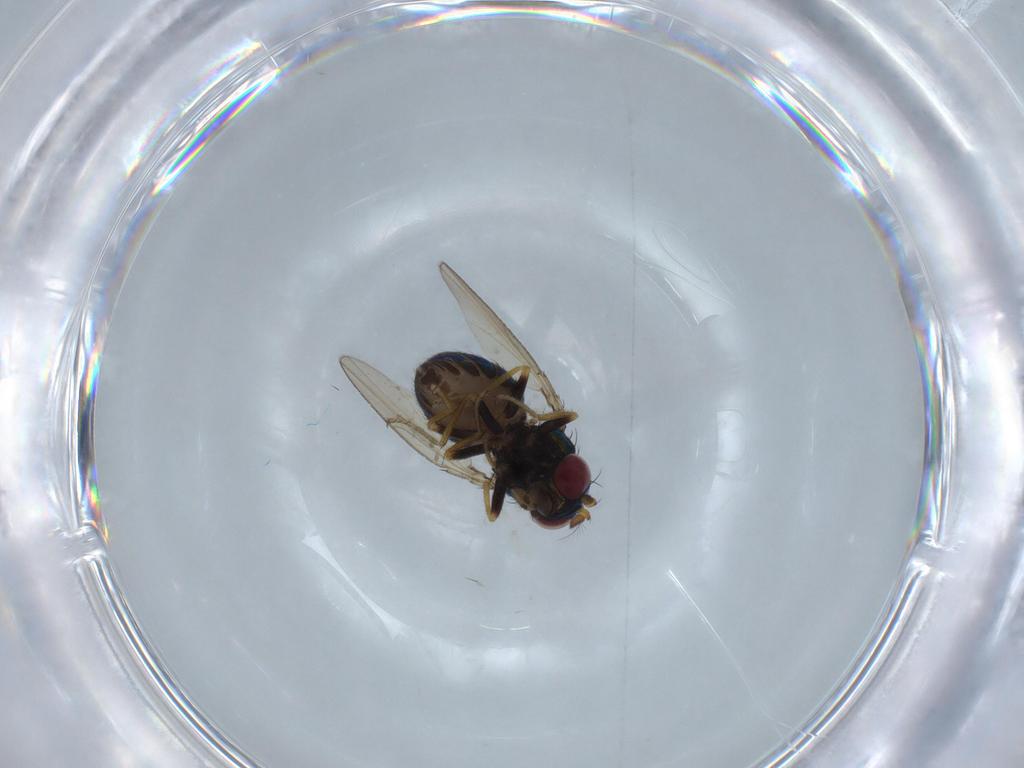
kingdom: Animalia
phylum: Arthropoda
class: Insecta
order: Diptera
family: Ephydridae
